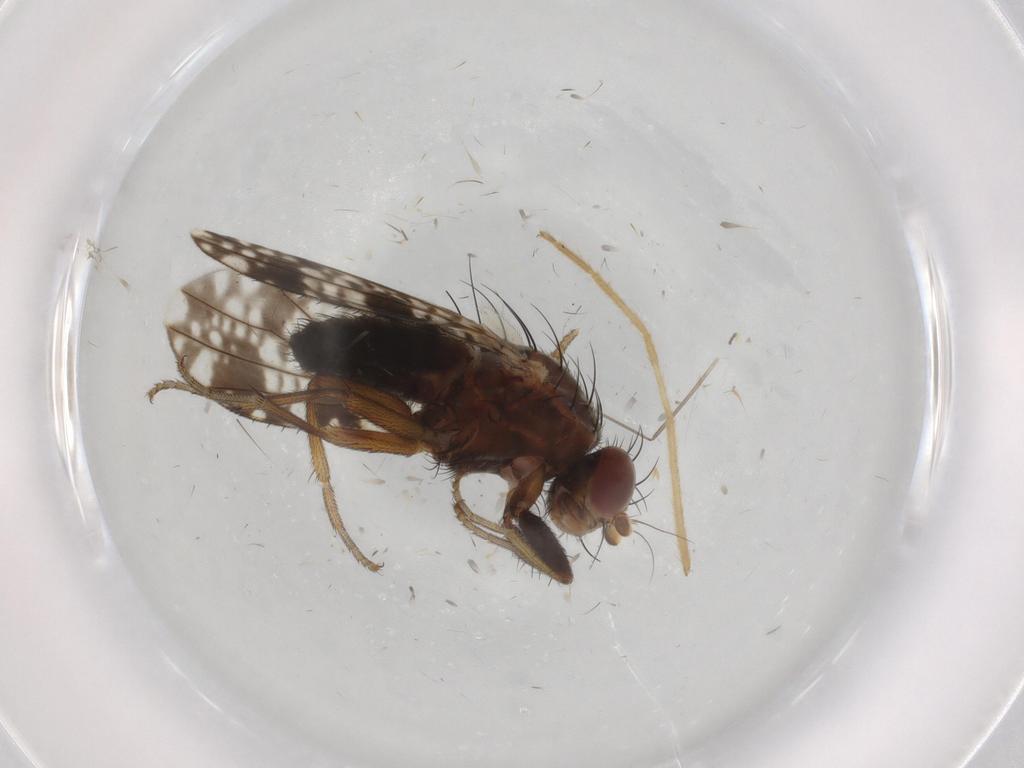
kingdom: Animalia
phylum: Arthropoda
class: Insecta
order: Diptera
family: Tephritidae
